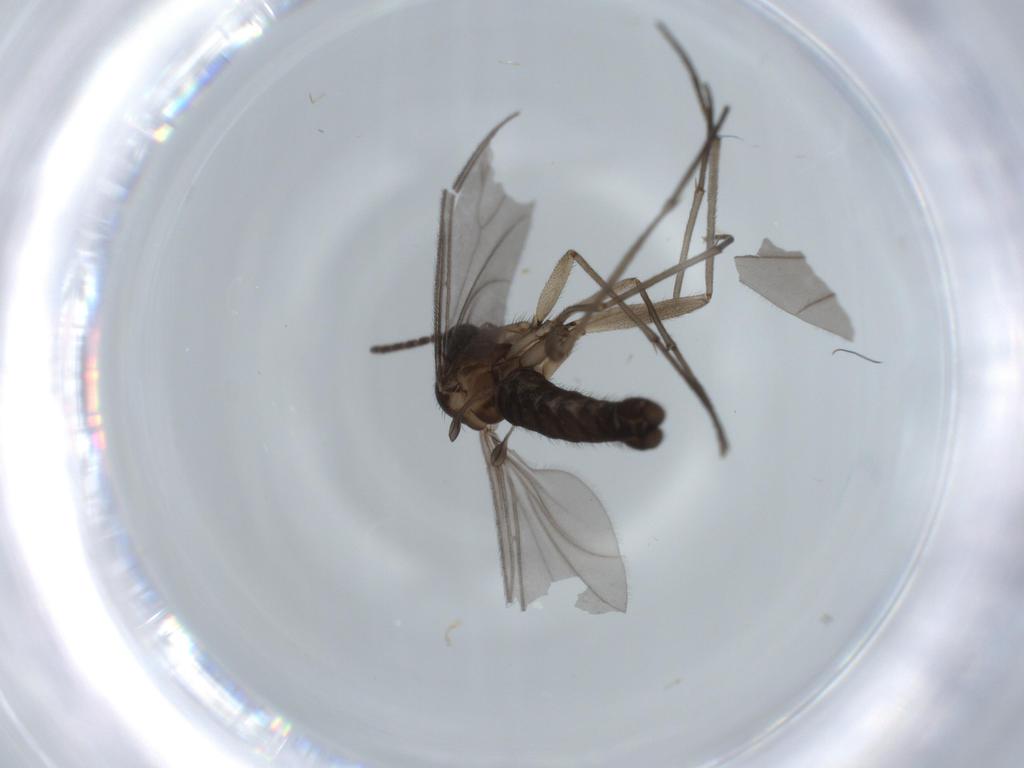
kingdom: Animalia
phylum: Arthropoda
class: Insecta
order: Diptera
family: Sciaridae
